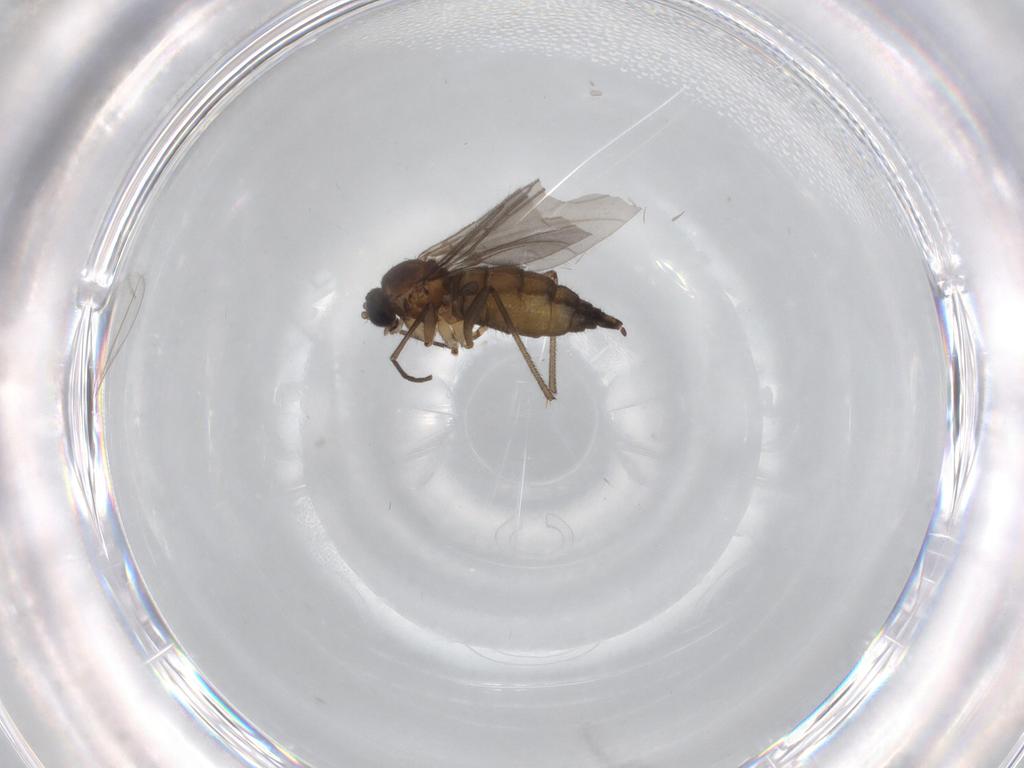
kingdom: Animalia
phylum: Arthropoda
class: Insecta
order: Diptera
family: Sciaridae
